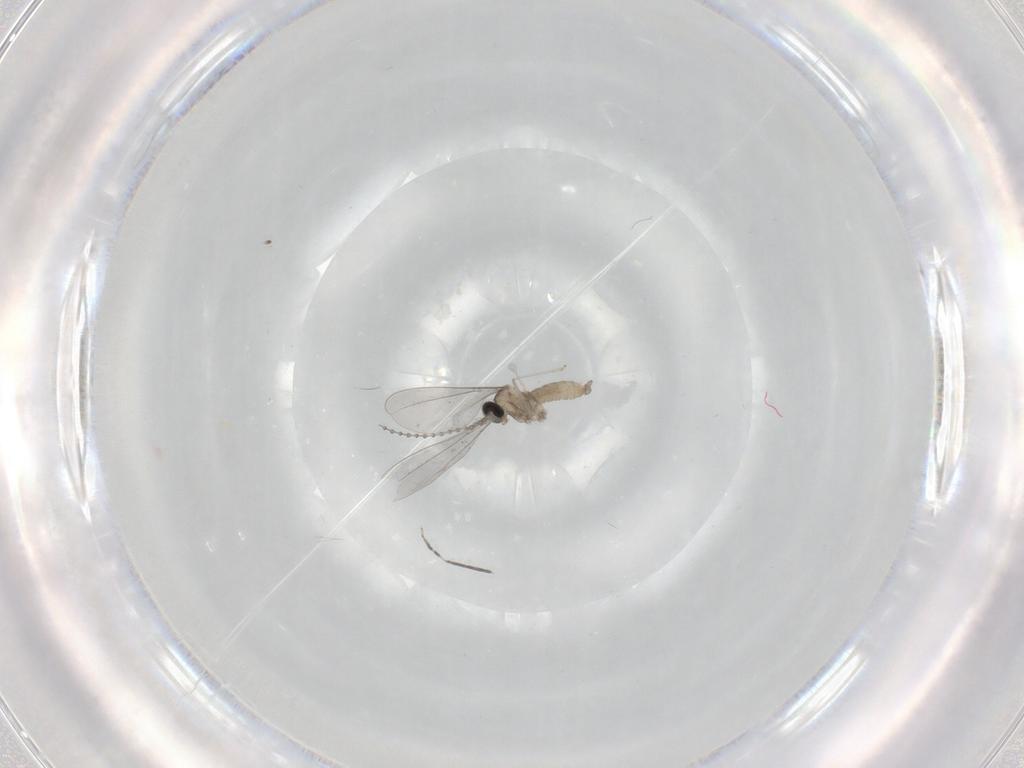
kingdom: Animalia
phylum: Arthropoda
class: Insecta
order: Diptera
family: Cecidomyiidae
